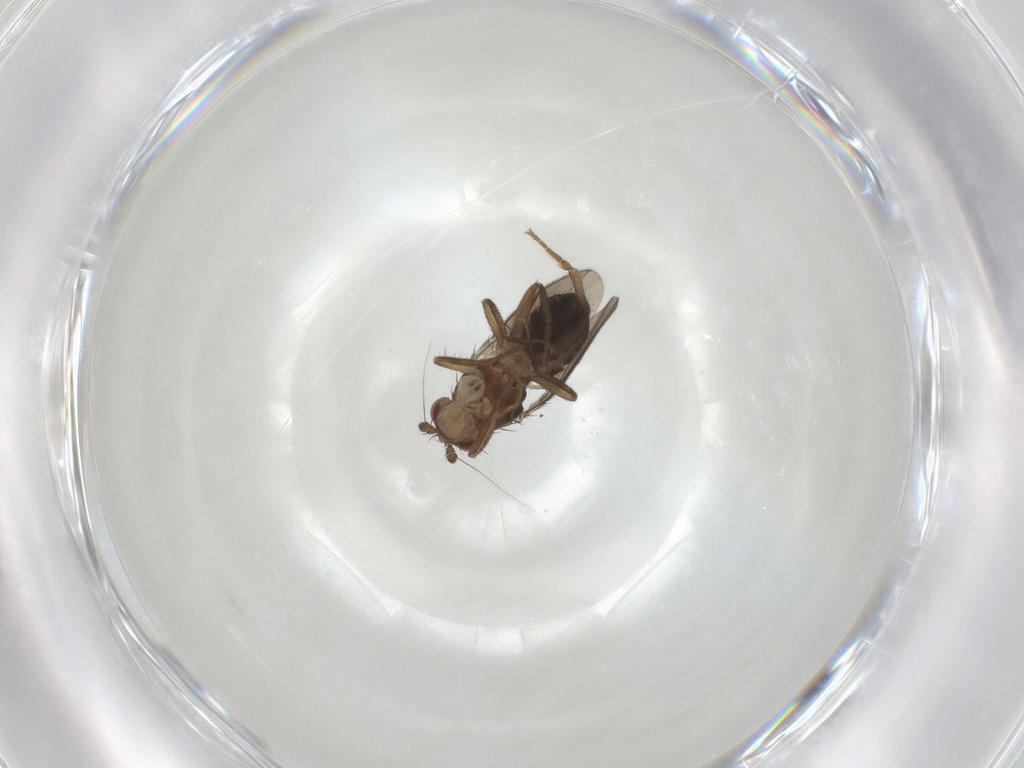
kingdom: Animalia
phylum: Arthropoda
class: Insecta
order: Diptera
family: Sphaeroceridae
